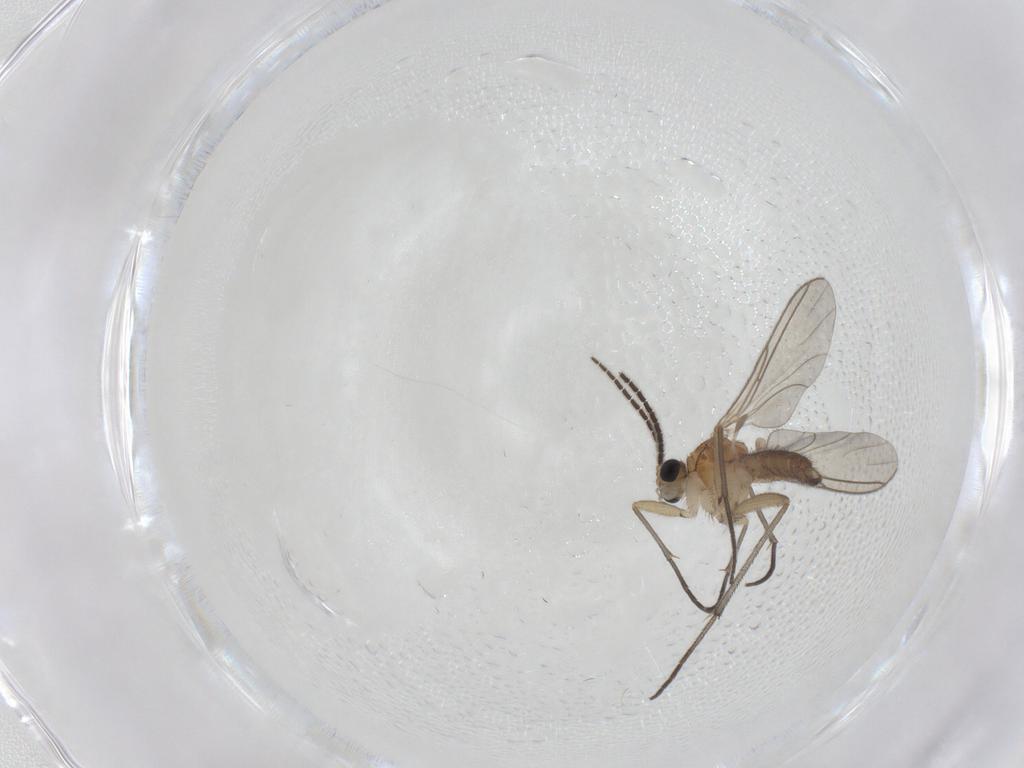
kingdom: Animalia
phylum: Arthropoda
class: Insecta
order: Diptera
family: Sciaridae
